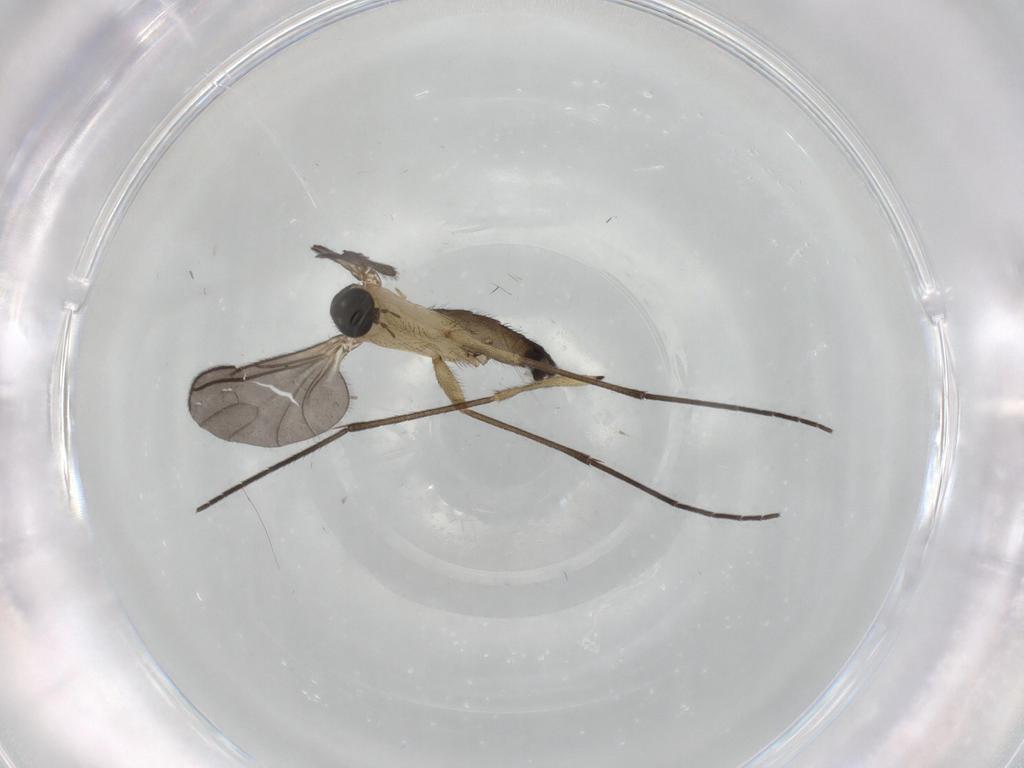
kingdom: Animalia
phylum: Arthropoda
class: Insecta
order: Diptera
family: Sciaridae
